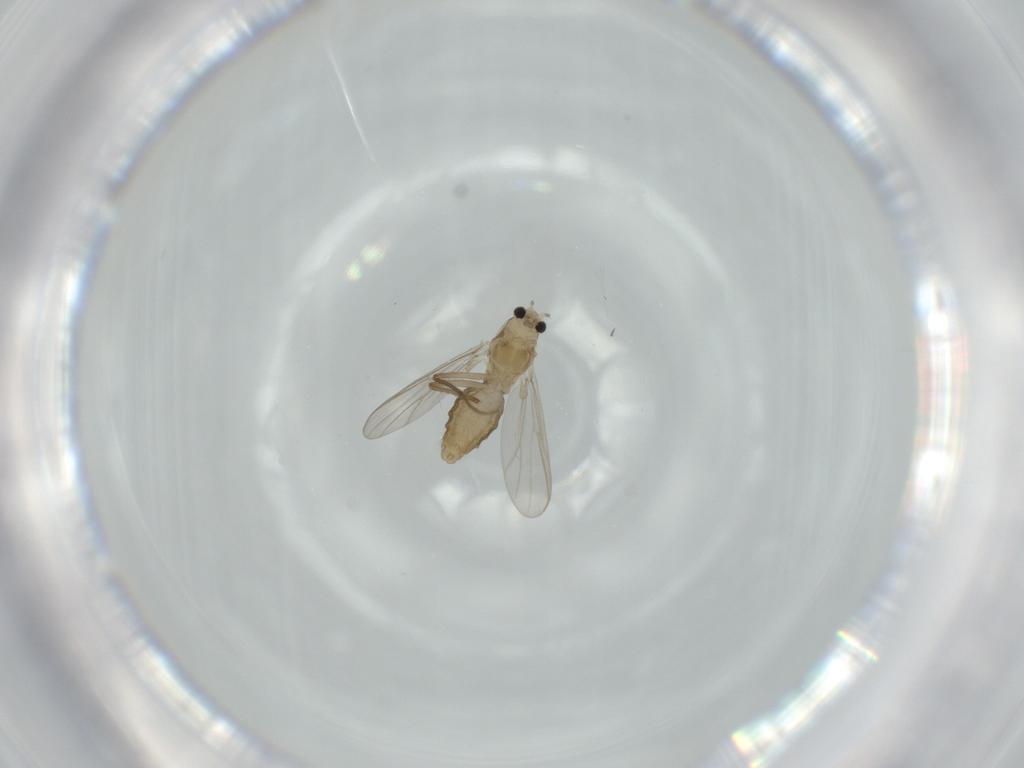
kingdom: Animalia
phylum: Arthropoda
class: Insecta
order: Diptera
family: Chironomidae
